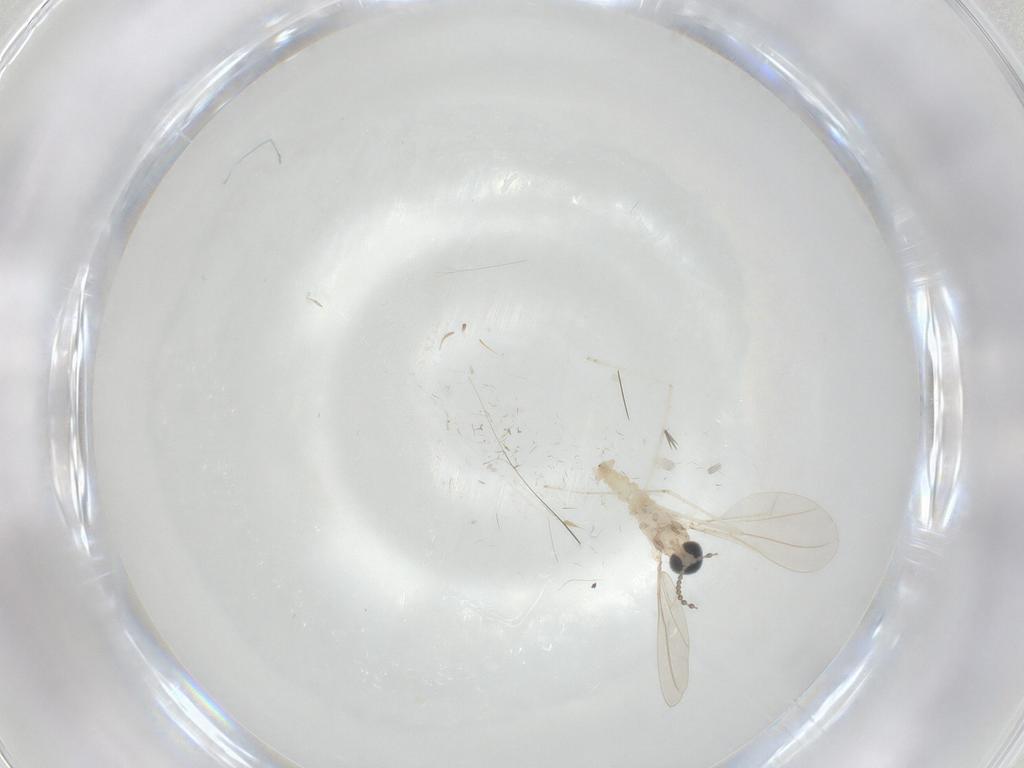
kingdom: Animalia
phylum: Arthropoda
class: Insecta
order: Diptera
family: Cecidomyiidae
